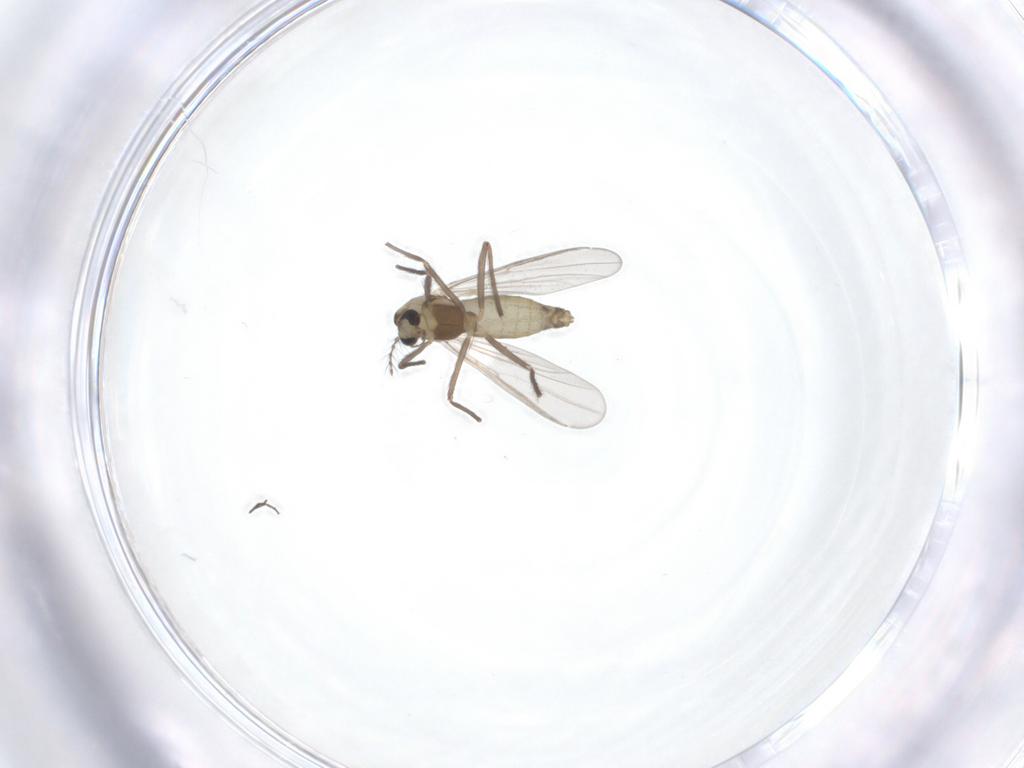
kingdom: Animalia
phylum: Arthropoda
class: Insecta
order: Diptera
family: Chironomidae
